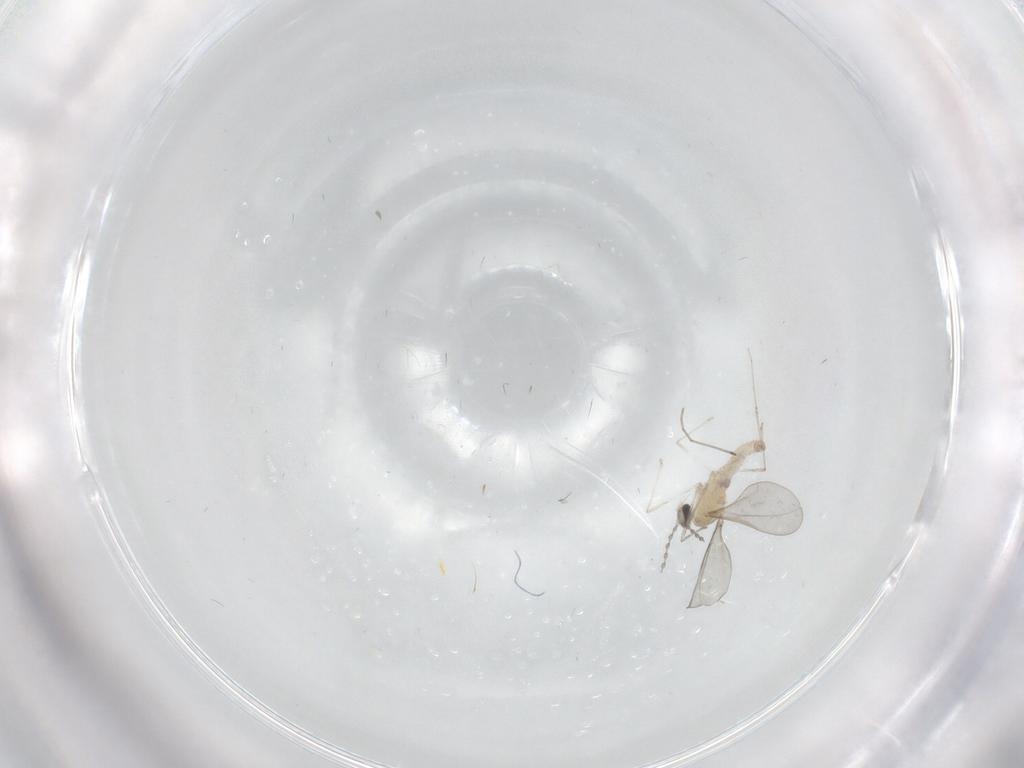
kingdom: Animalia
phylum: Arthropoda
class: Insecta
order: Diptera
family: Cecidomyiidae
